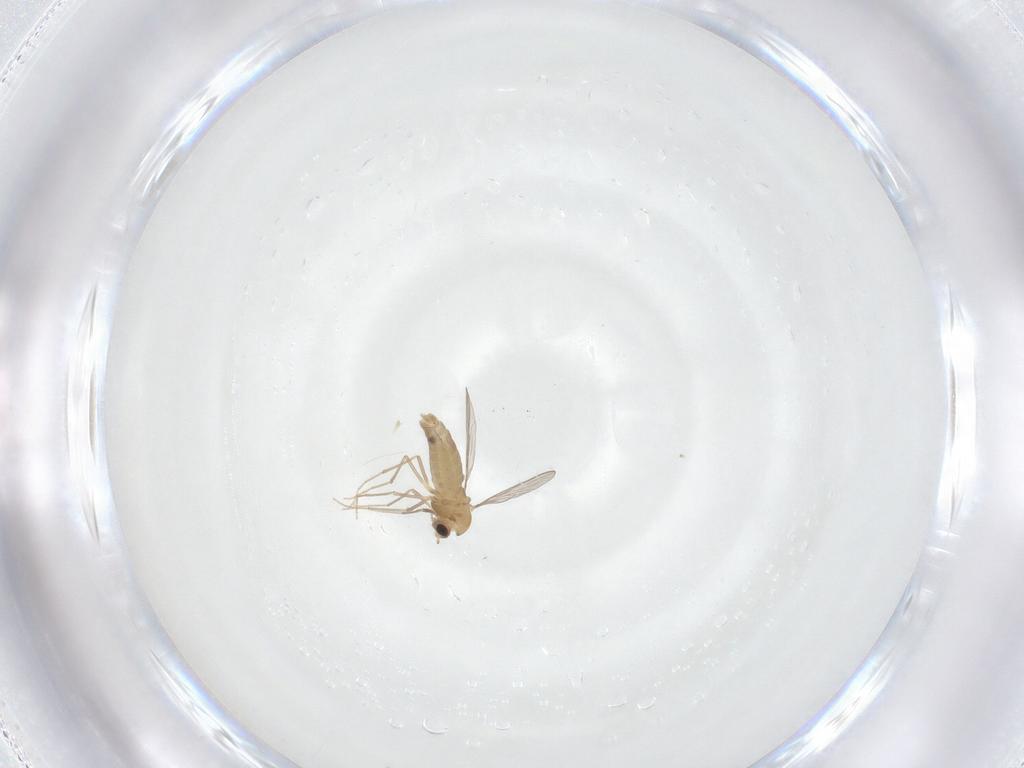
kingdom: Animalia
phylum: Arthropoda
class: Insecta
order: Diptera
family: Chironomidae
